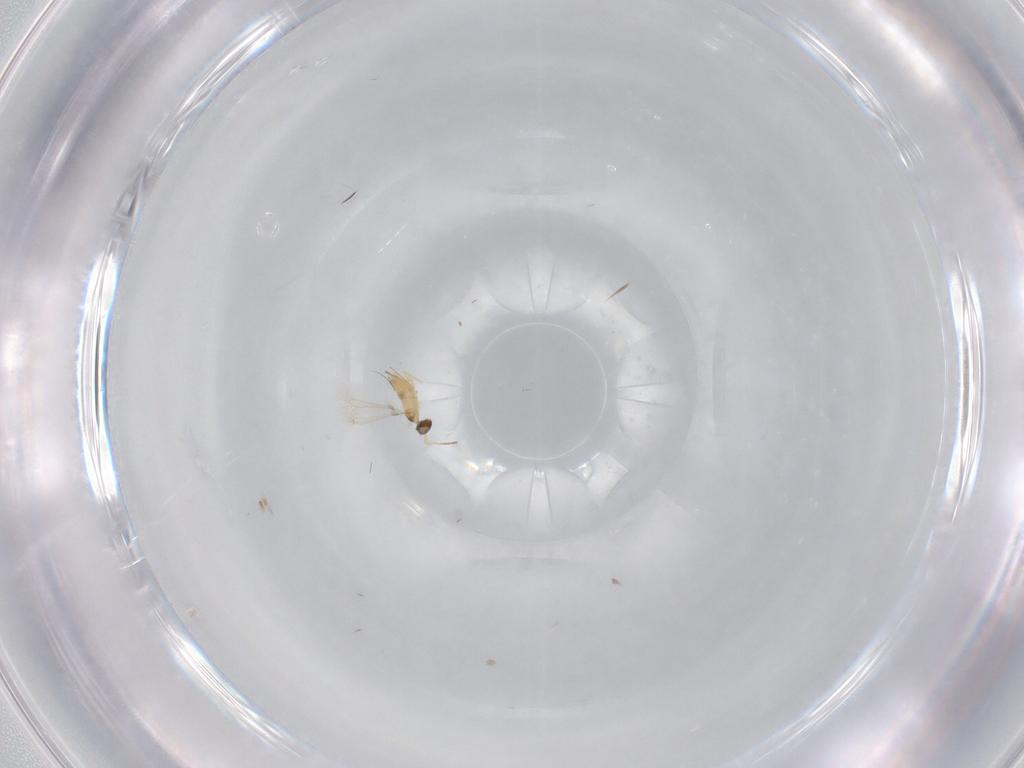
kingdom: Animalia
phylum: Arthropoda
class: Insecta
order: Hymenoptera
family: Mymaridae
